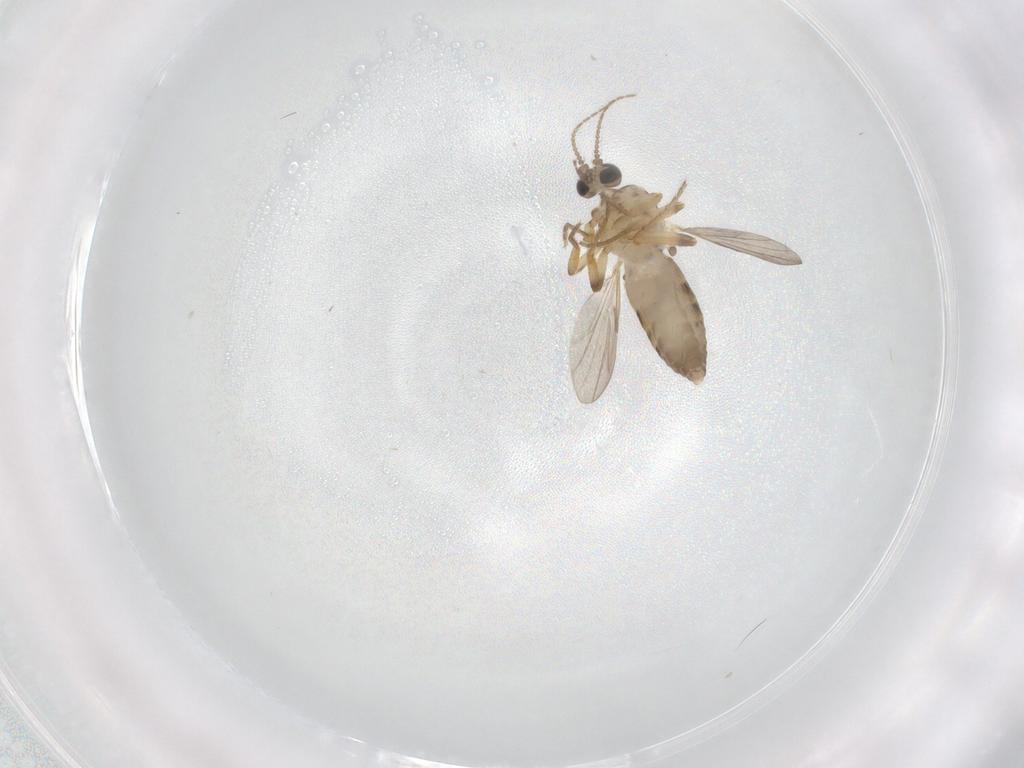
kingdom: Animalia
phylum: Arthropoda
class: Insecta
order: Diptera
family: Ceratopogonidae
